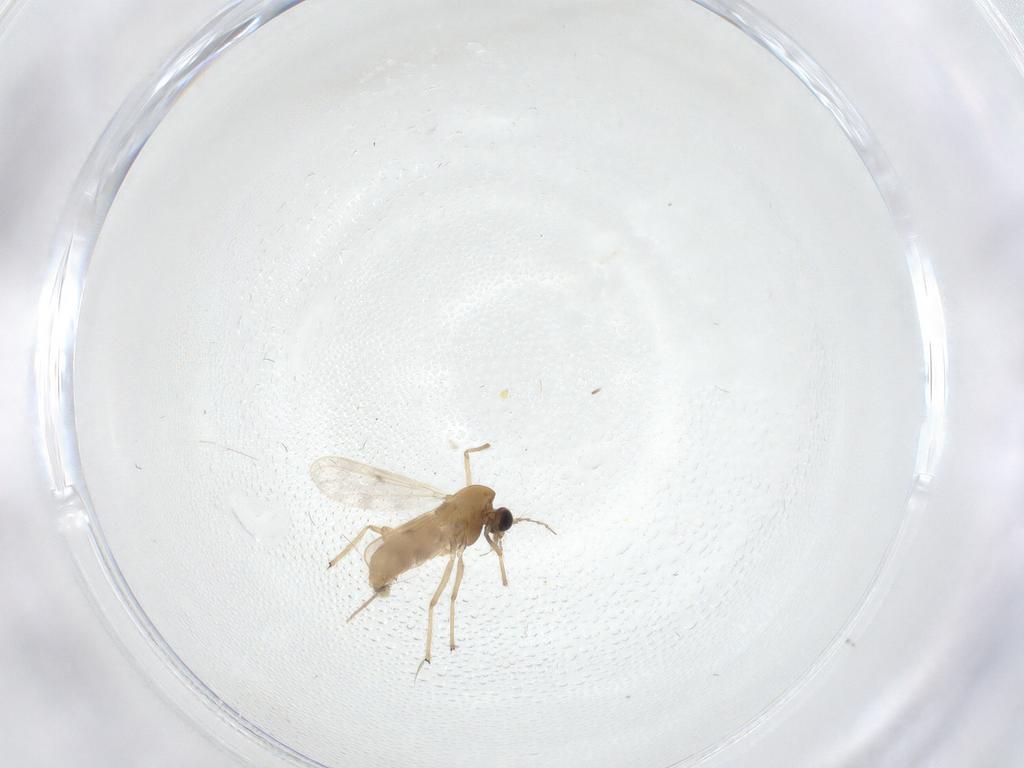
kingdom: Animalia
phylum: Arthropoda
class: Insecta
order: Diptera
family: Chironomidae
